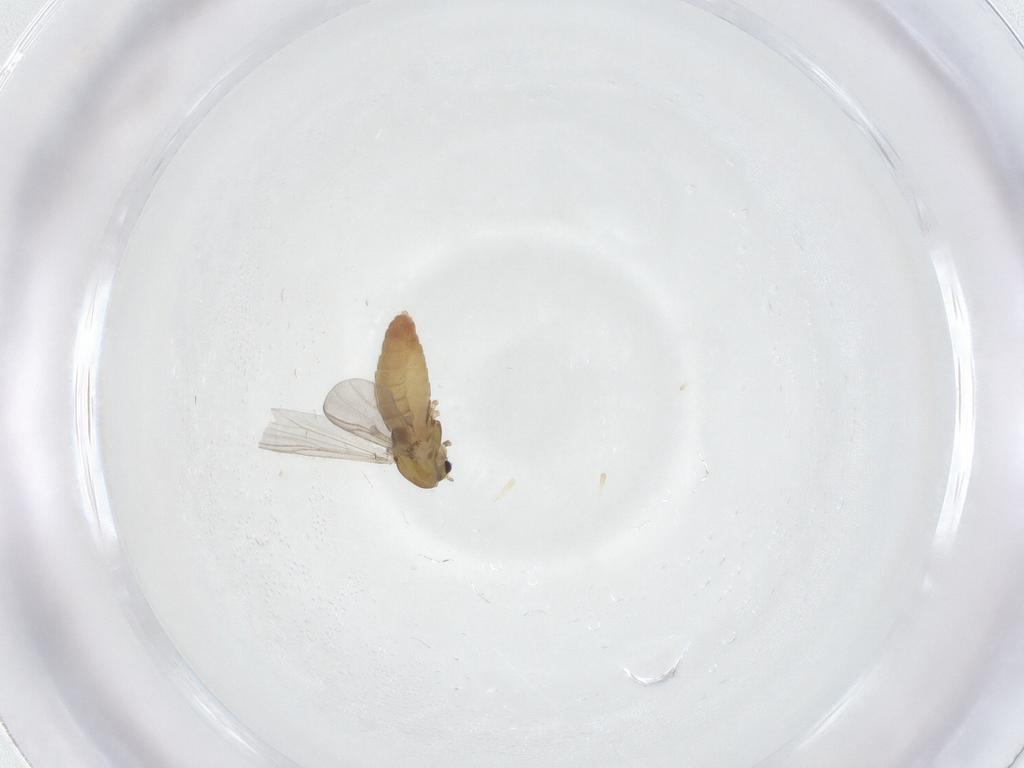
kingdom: Animalia
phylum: Arthropoda
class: Insecta
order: Diptera
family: Chironomidae
